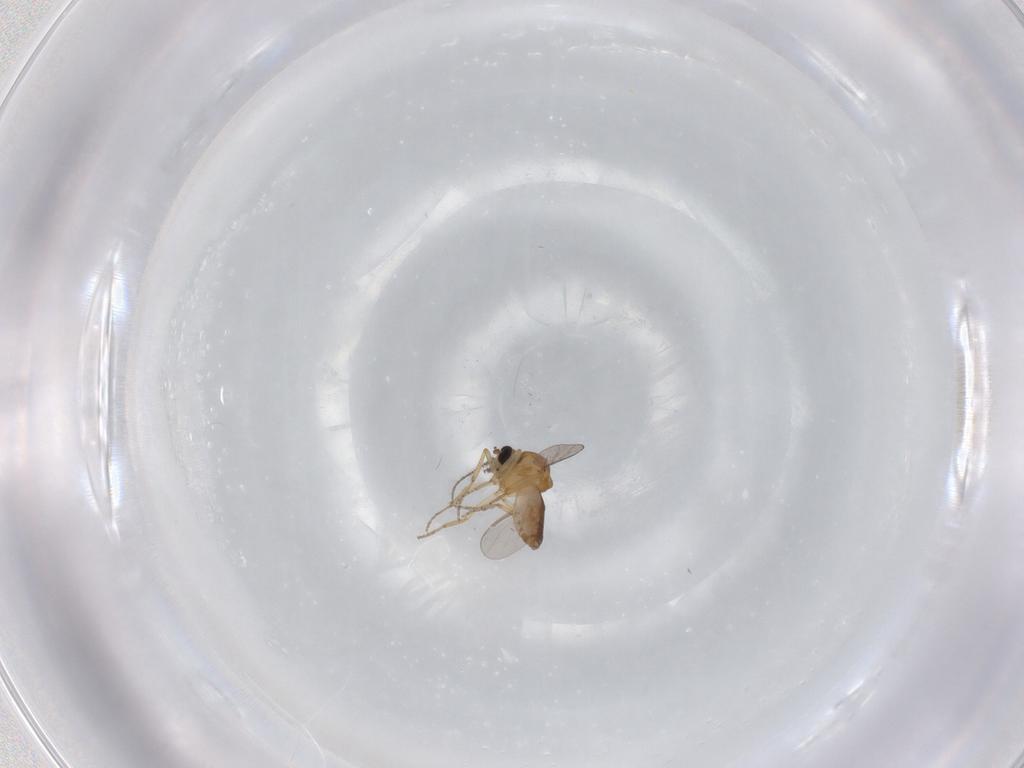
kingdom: Animalia
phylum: Arthropoda
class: Insecta
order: Diptera
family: Ceratopogonidae
